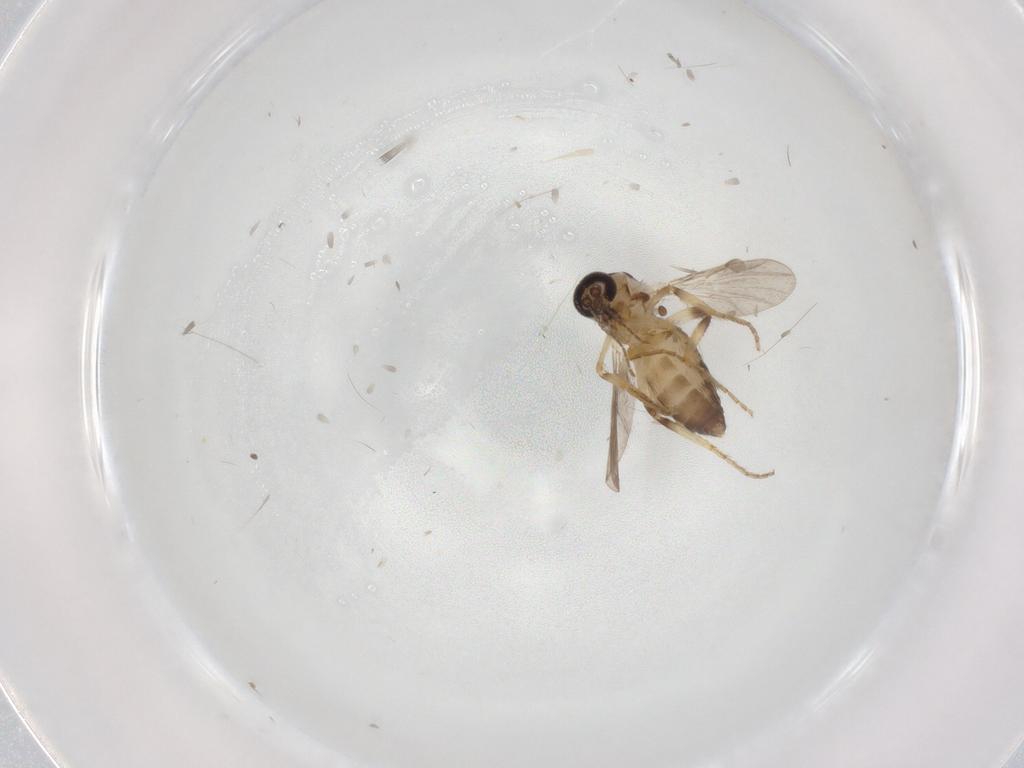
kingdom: Animalia
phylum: Arthropoda
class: Insecta
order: Diptera
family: Ceratopogonidae
